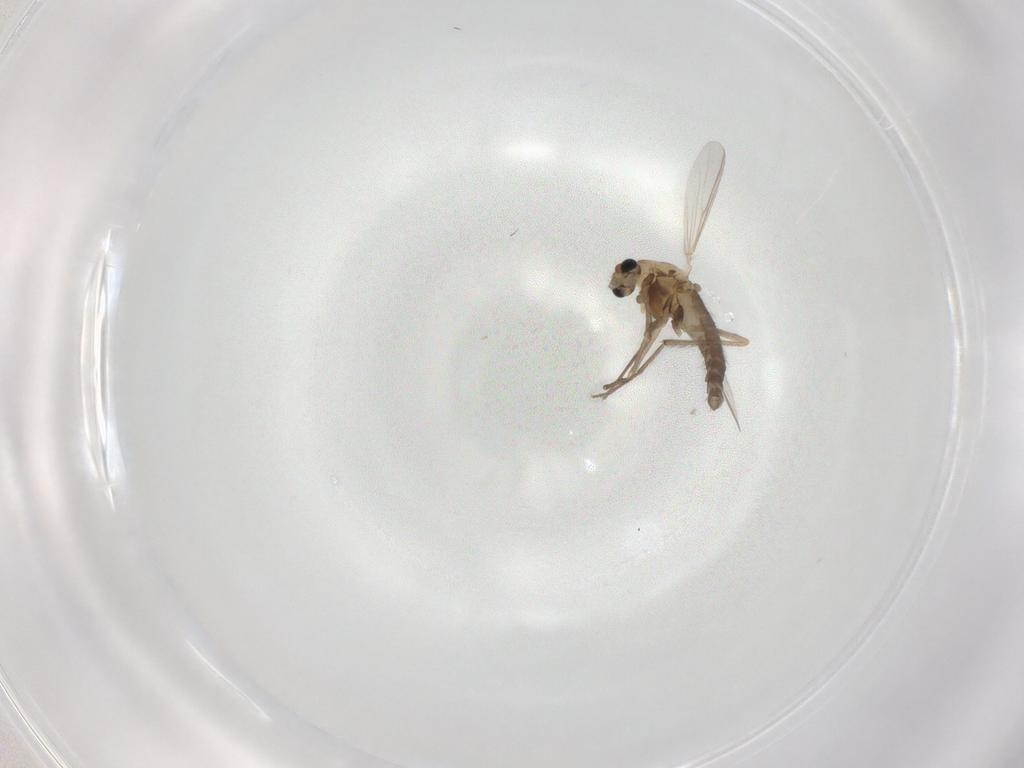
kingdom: Animalia
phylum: Arthropoda
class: Insecta
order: Diptera
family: Chironomidae
